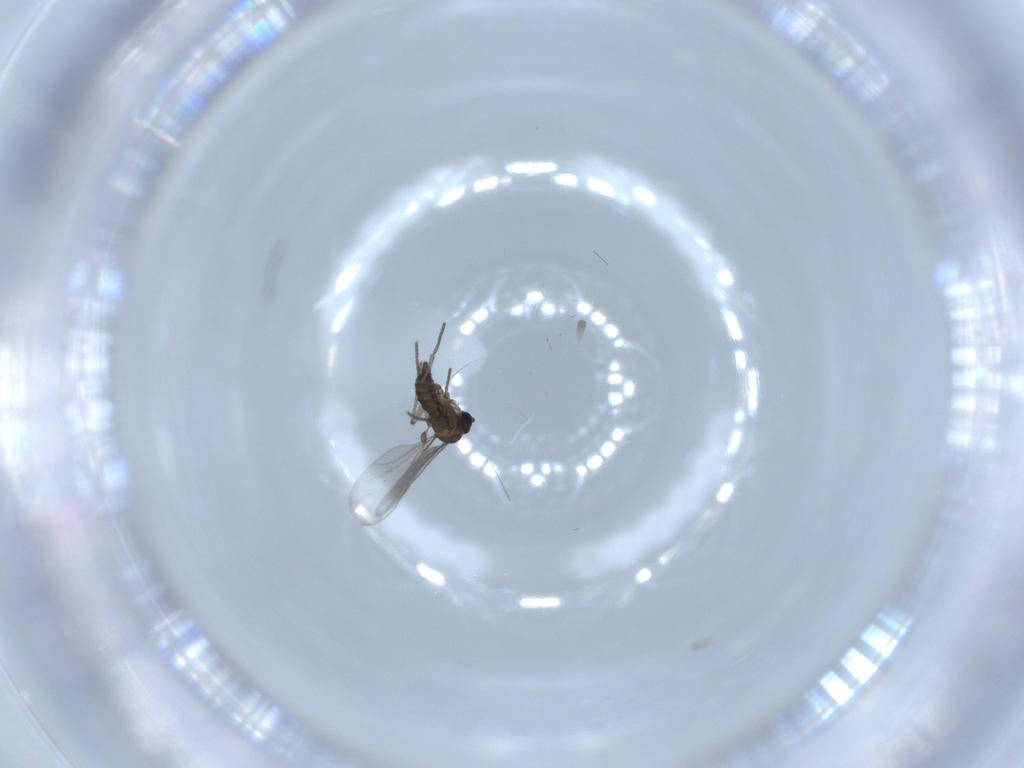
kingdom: Animalia
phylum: Arthropoda
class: Insecta
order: Diptera
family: Ceratopogonidae
